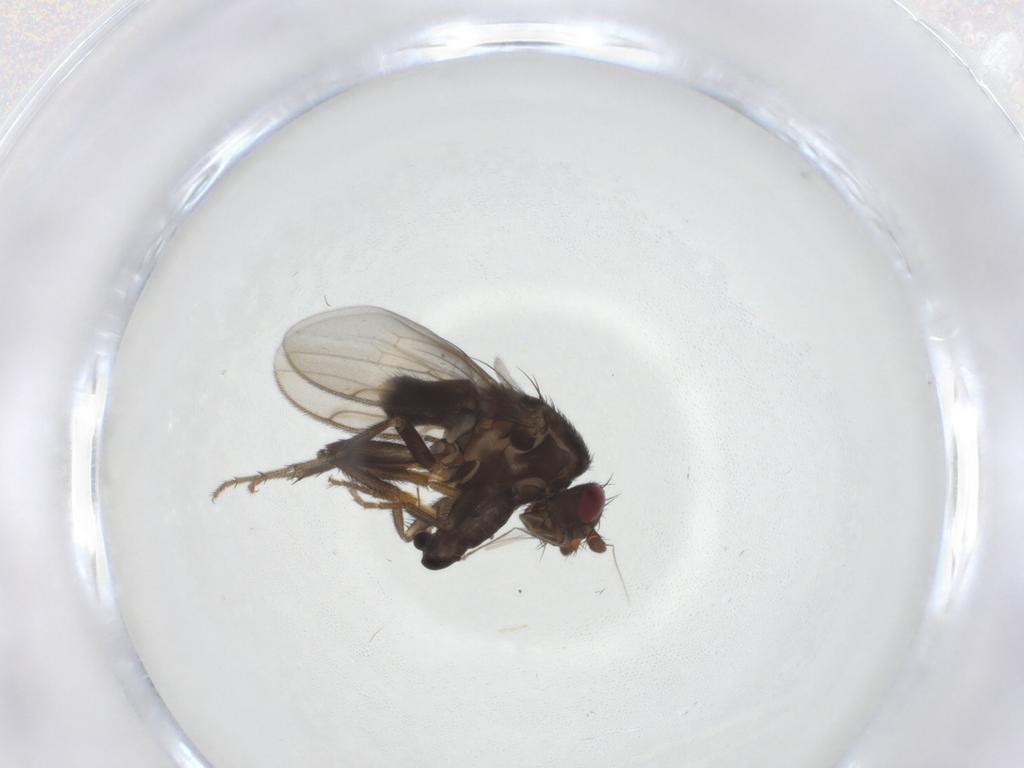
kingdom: Animalia
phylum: Arthropoda
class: Insecta
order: Diptera
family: Sphaeroceridae
